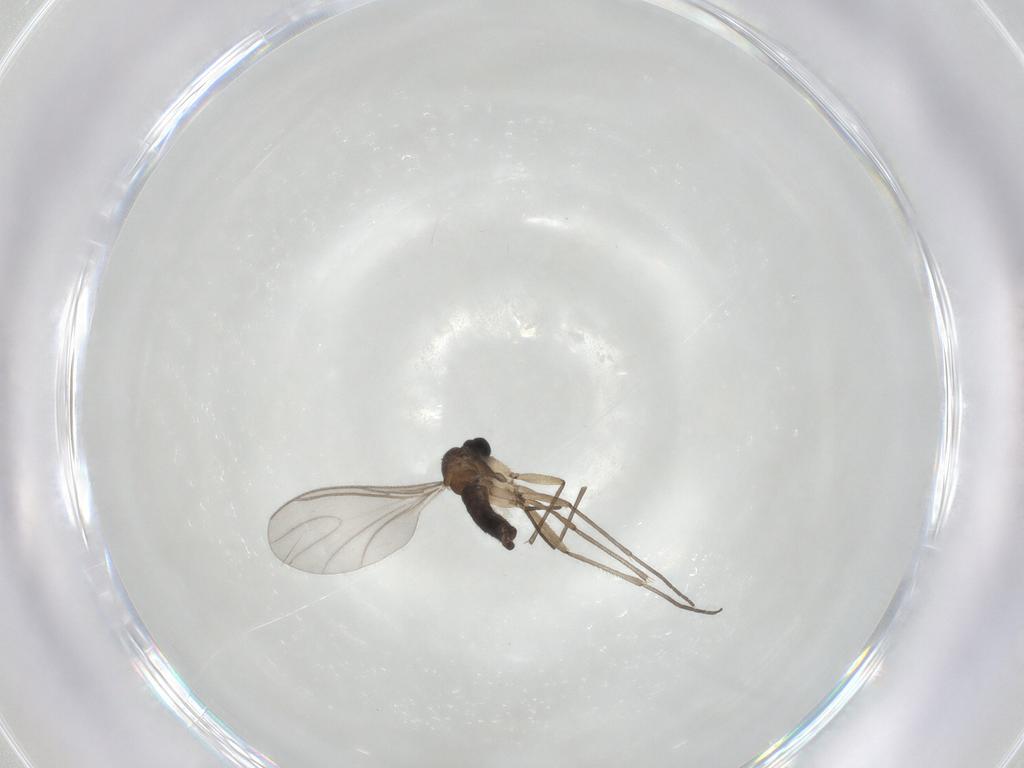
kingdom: Animalia
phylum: Arthropoda
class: Insecta
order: Diptera
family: Sciaridae
